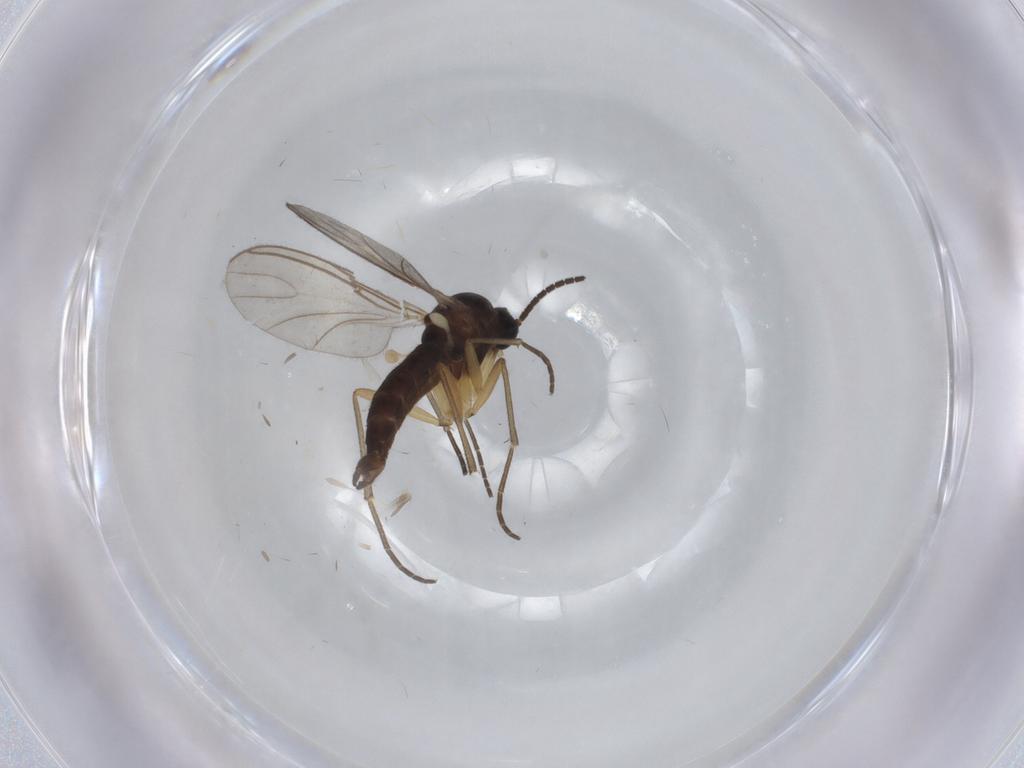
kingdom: Animalia
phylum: Arthropoda
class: Insecta
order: Diptera
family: Sciaridae
